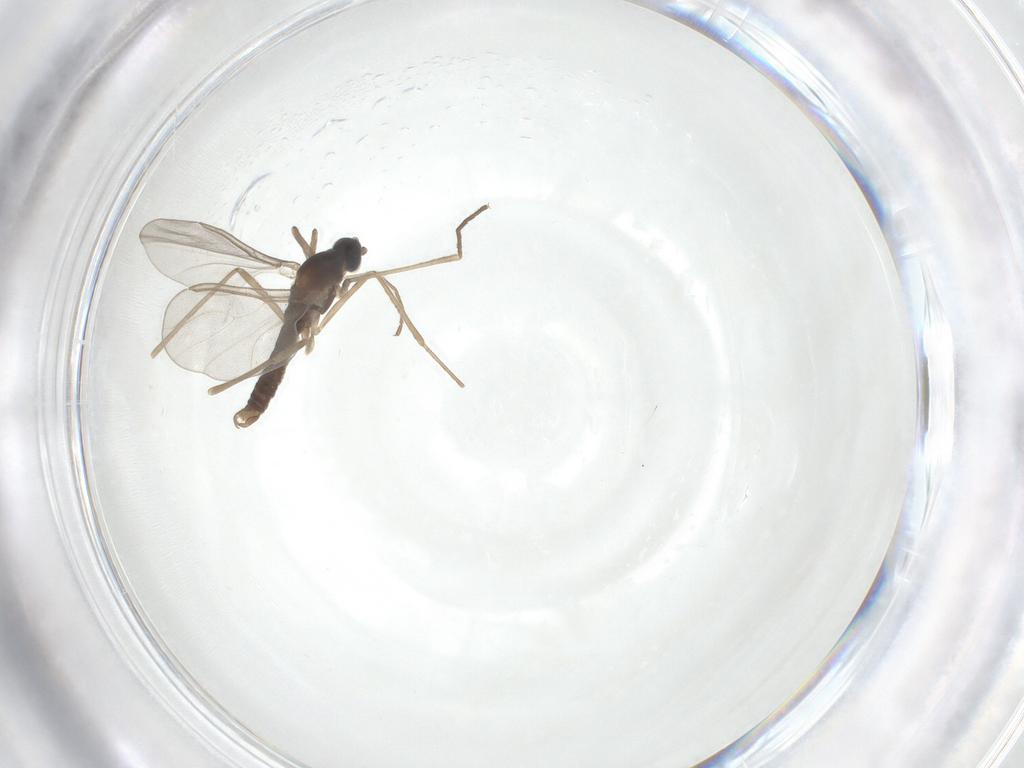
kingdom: Animalia
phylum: Arthropoda
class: Insecta
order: Diptera
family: Cecidomyiidae
